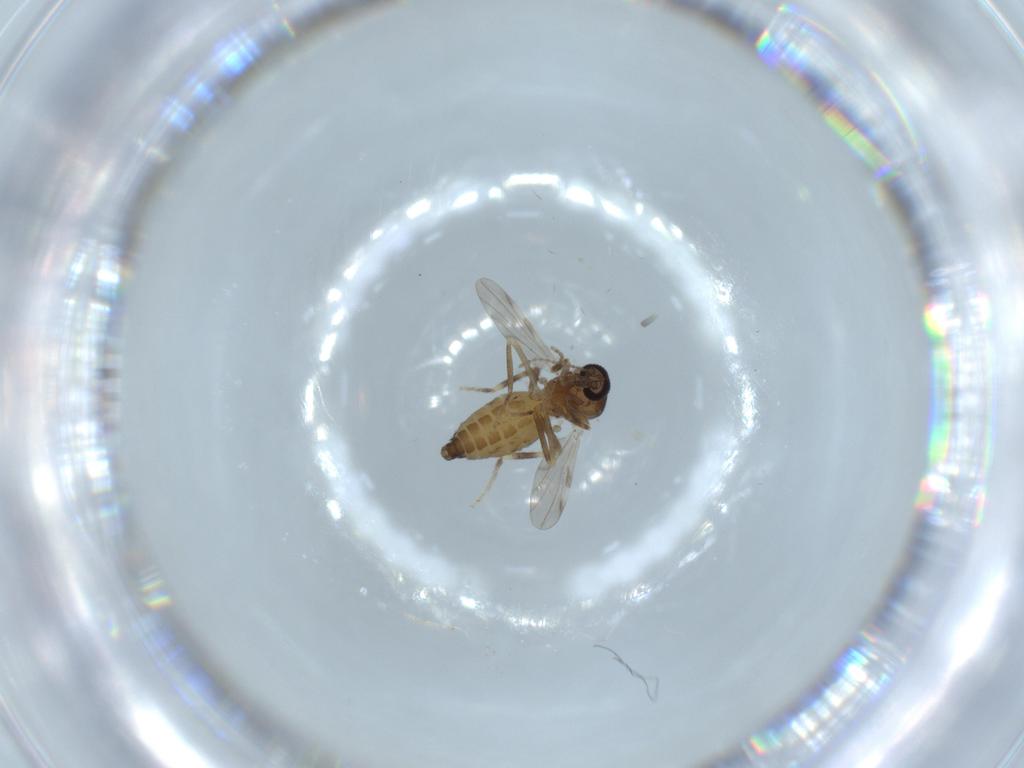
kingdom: Animalia
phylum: Arthropoda
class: Insecta
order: Diptera
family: Ceratopogonidae
